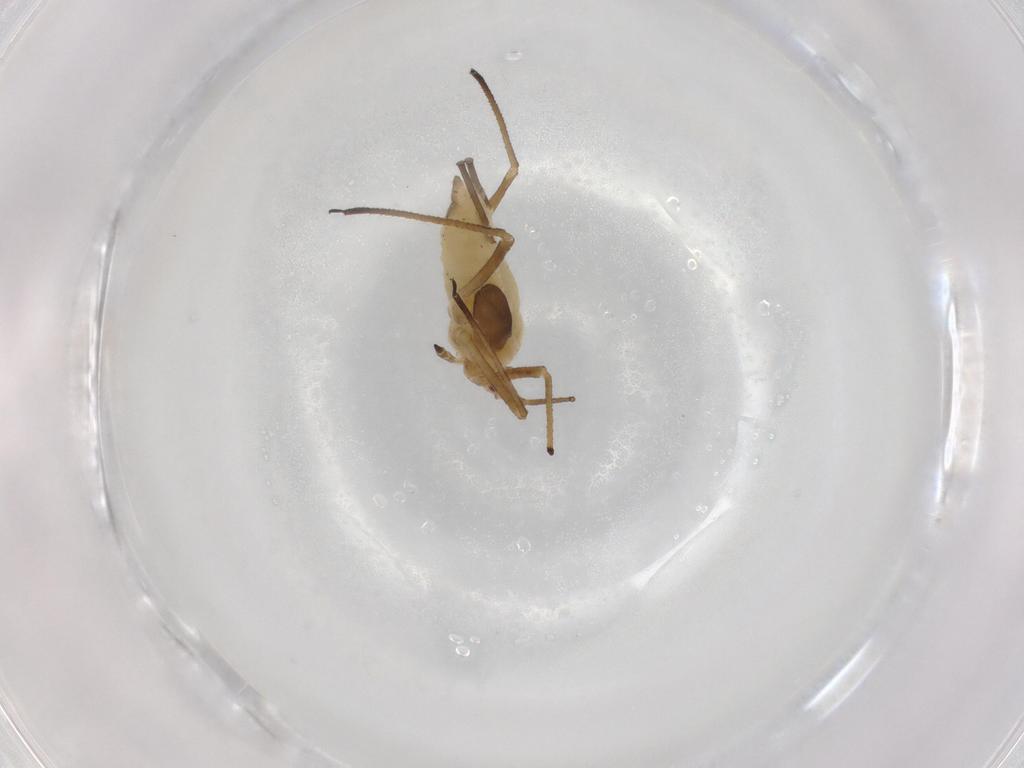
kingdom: Animalia
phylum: Arthropoda
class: Insecta
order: Hemiptera
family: Aphididae
